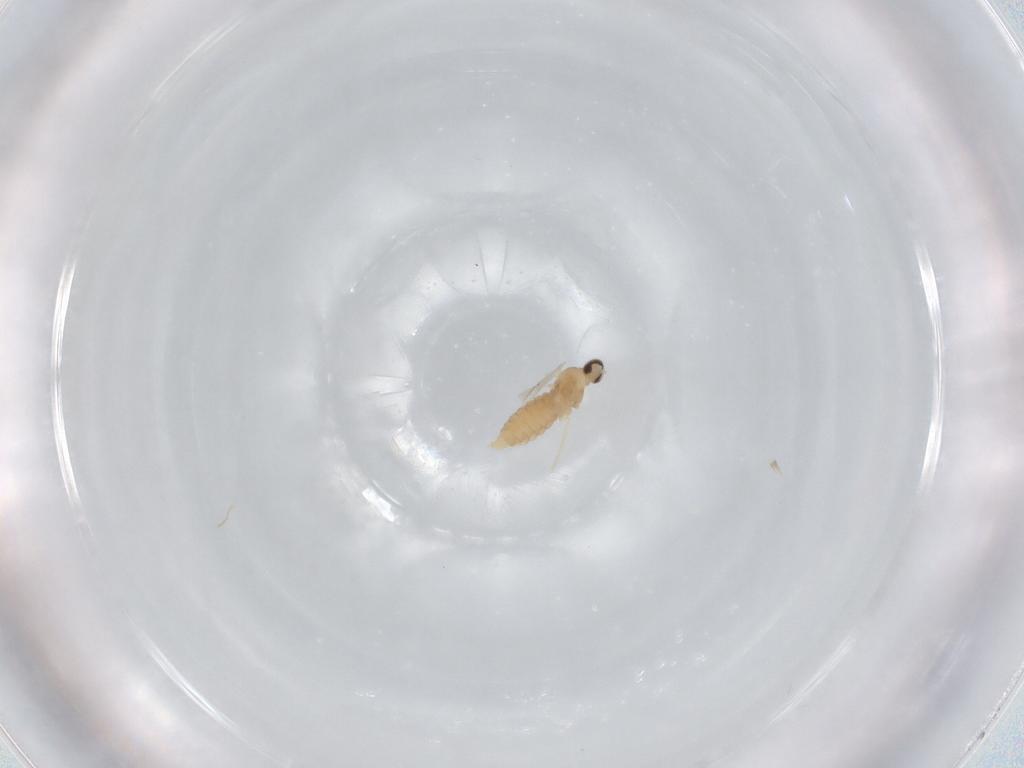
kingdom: Animalia
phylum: Arthropoda
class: Insecta
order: Diptera
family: Cecidomyiidae
